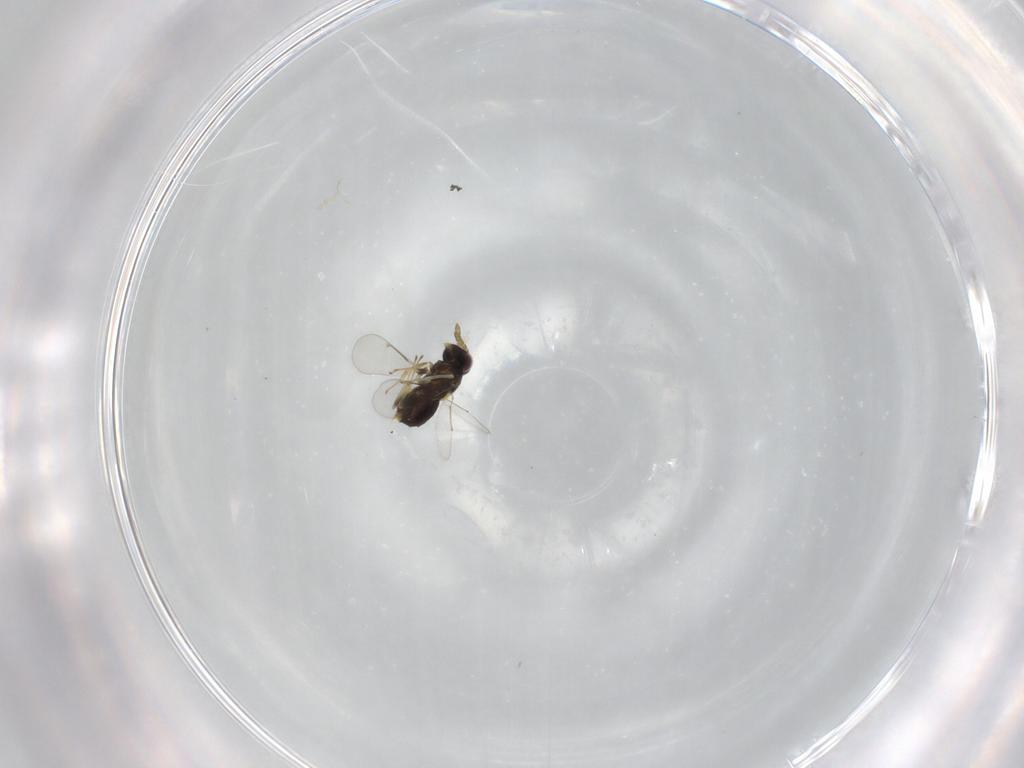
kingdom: Animalia
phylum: Arthropoda
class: Insecta
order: Hymenoptera
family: Aphelinidae
